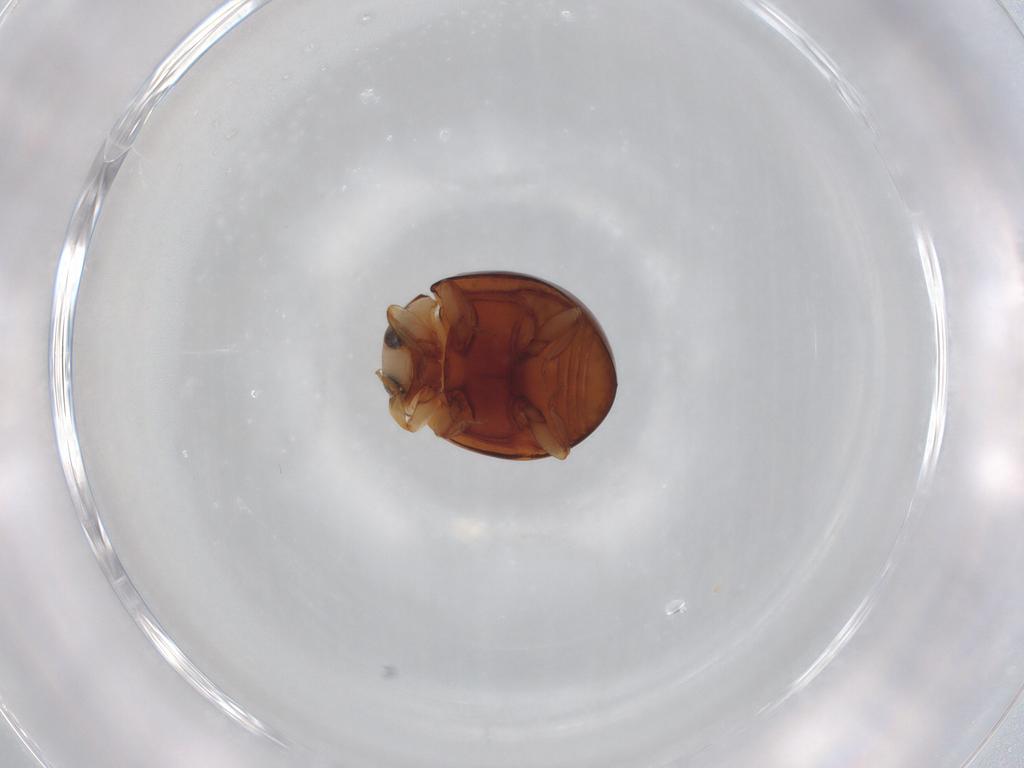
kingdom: Animalia
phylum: Arthropoda
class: Insecta
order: Coleoptera
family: Coccinellidae
